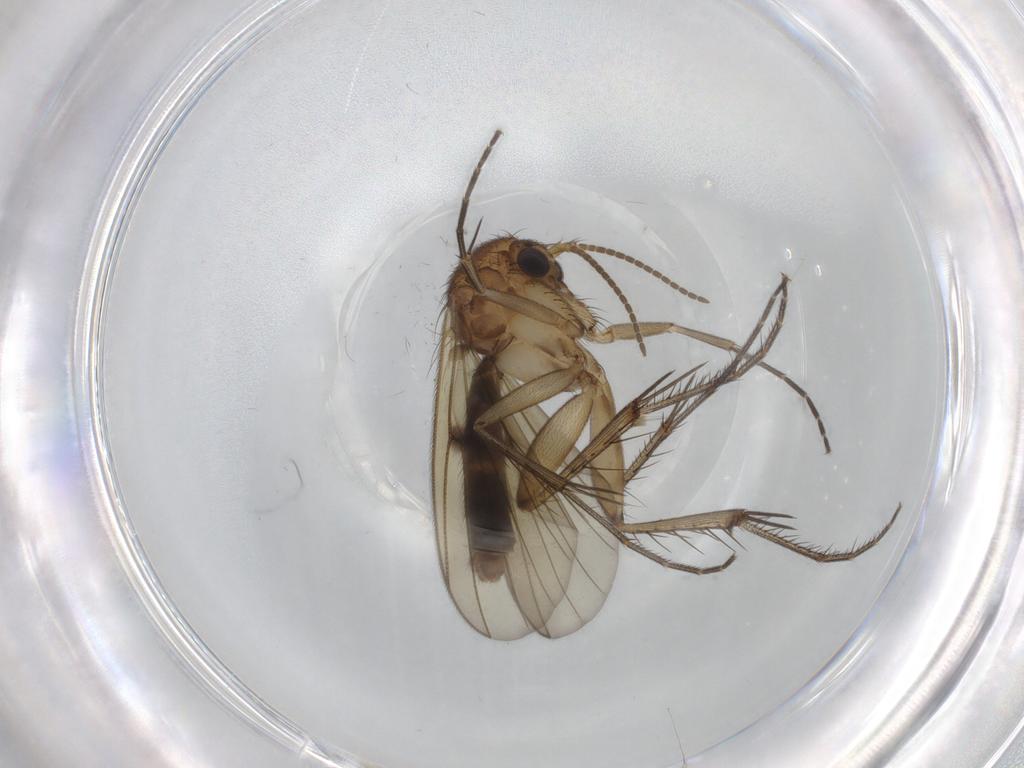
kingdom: Animalia
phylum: Arthropoda
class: Insecta
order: Diptera
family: Mycetophilidae
